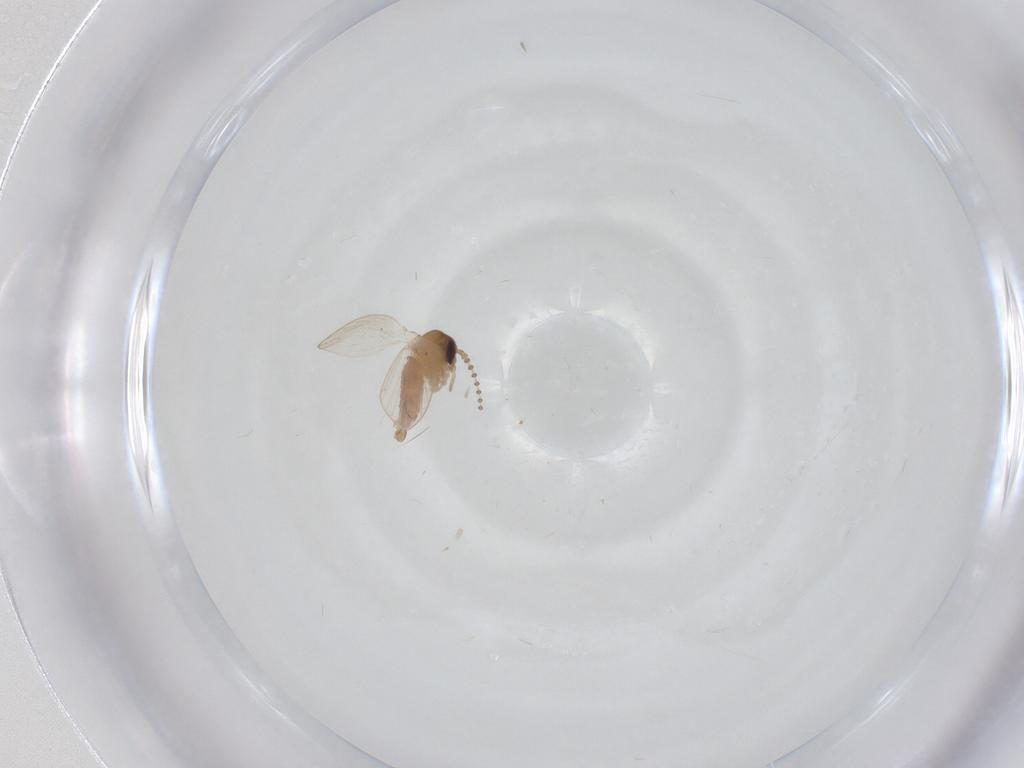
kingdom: Animalia
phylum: Arthropoda
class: Insecta
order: Diptera
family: Psychodidae
